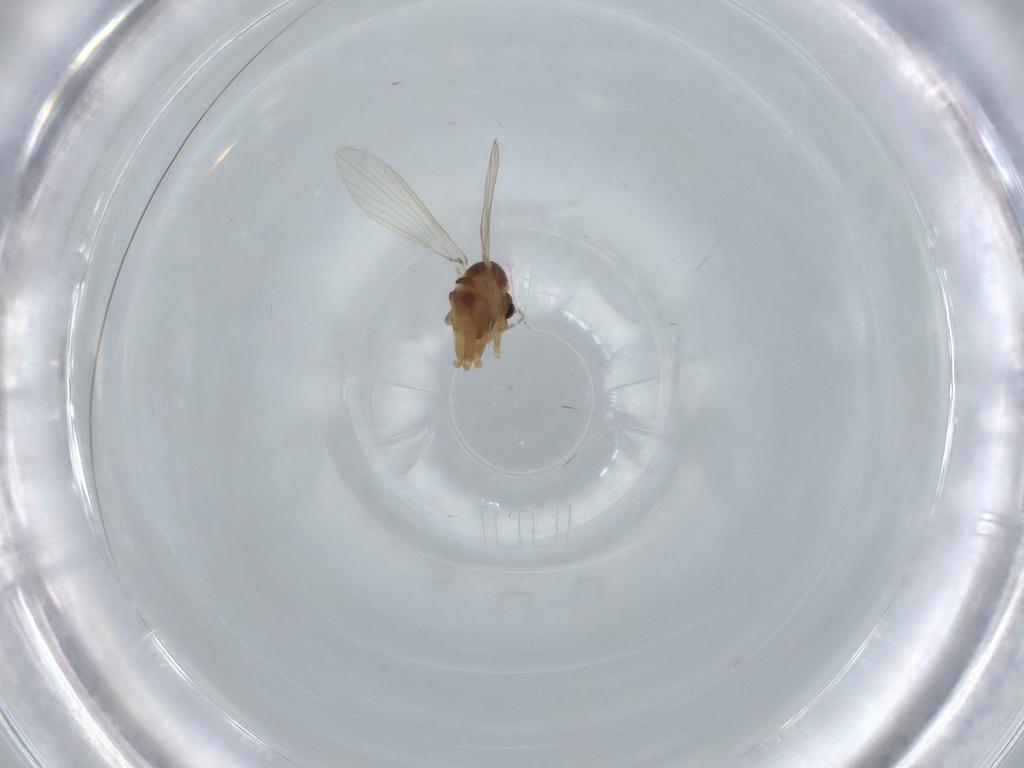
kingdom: Animalia
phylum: Arthropoda
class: Insecta
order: Diptera
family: Psychodidae
